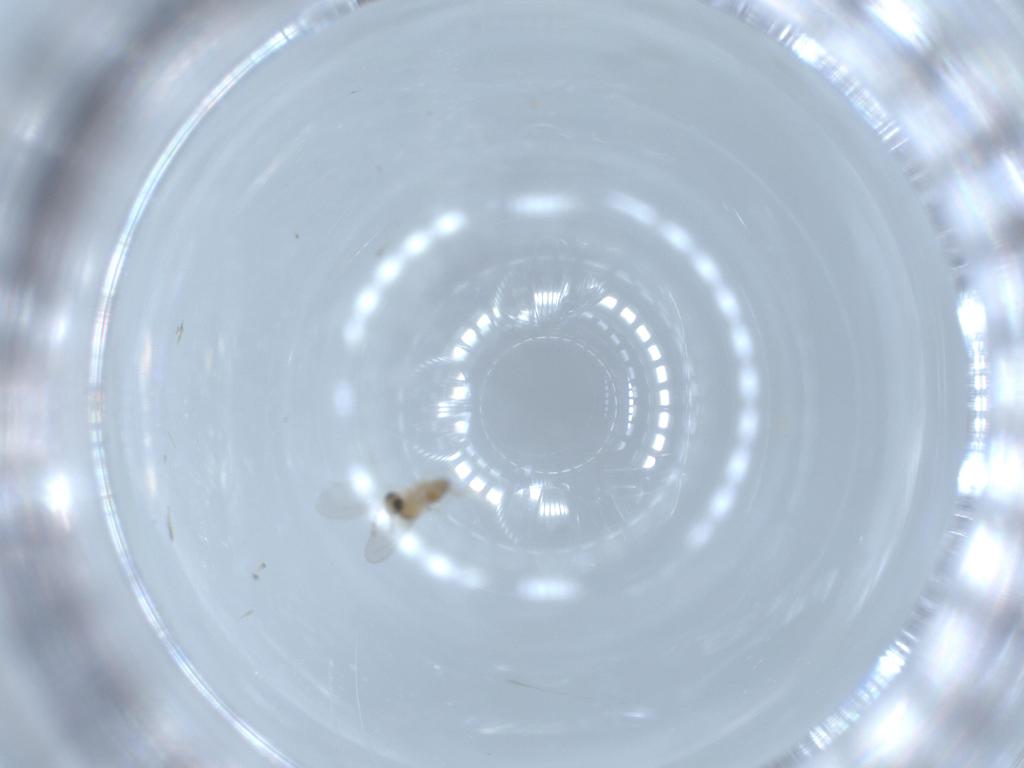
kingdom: Animalia
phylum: Arthropoda
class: Insecta
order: Diptera
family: Cecidomyiidae
